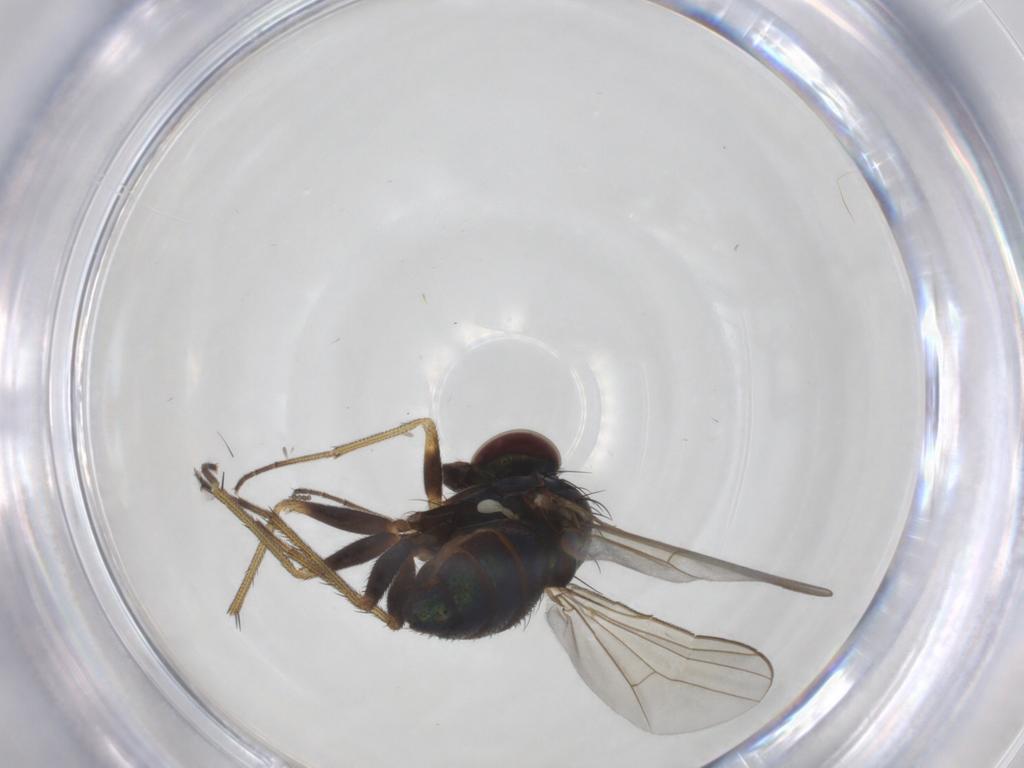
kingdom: Animalia
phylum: Arthropoda
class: Insecta
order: Diptera
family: Dolichopodidae
